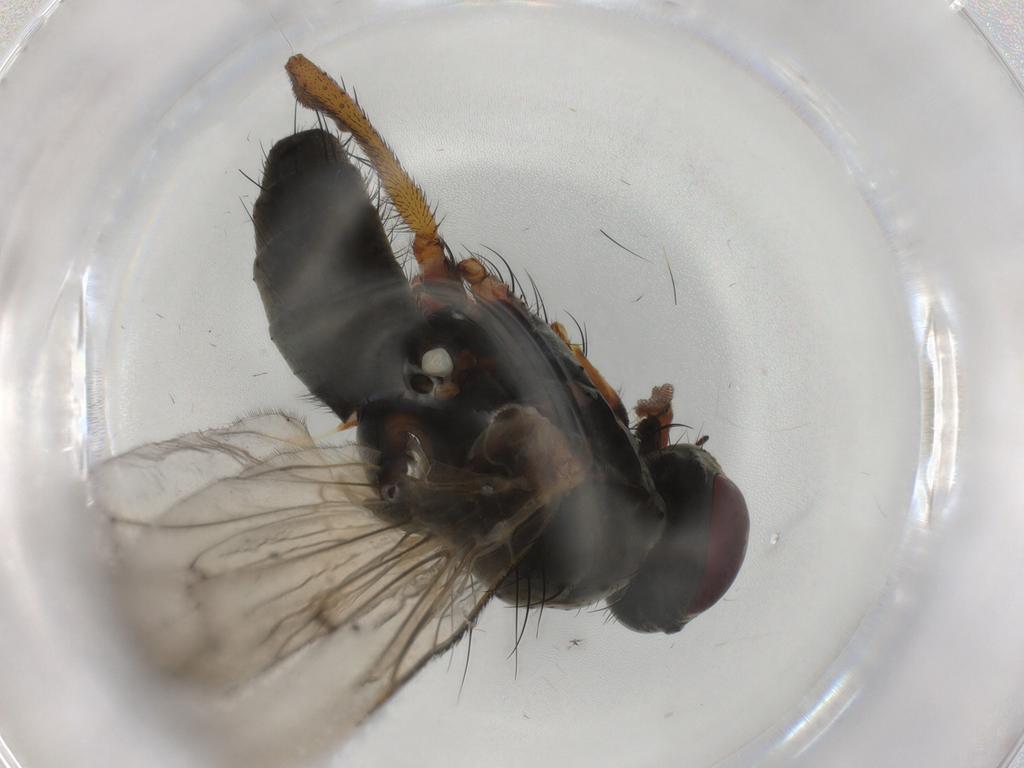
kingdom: Animalia
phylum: Arthropoda
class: Insecta
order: Diptera
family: Anthomyiidae
